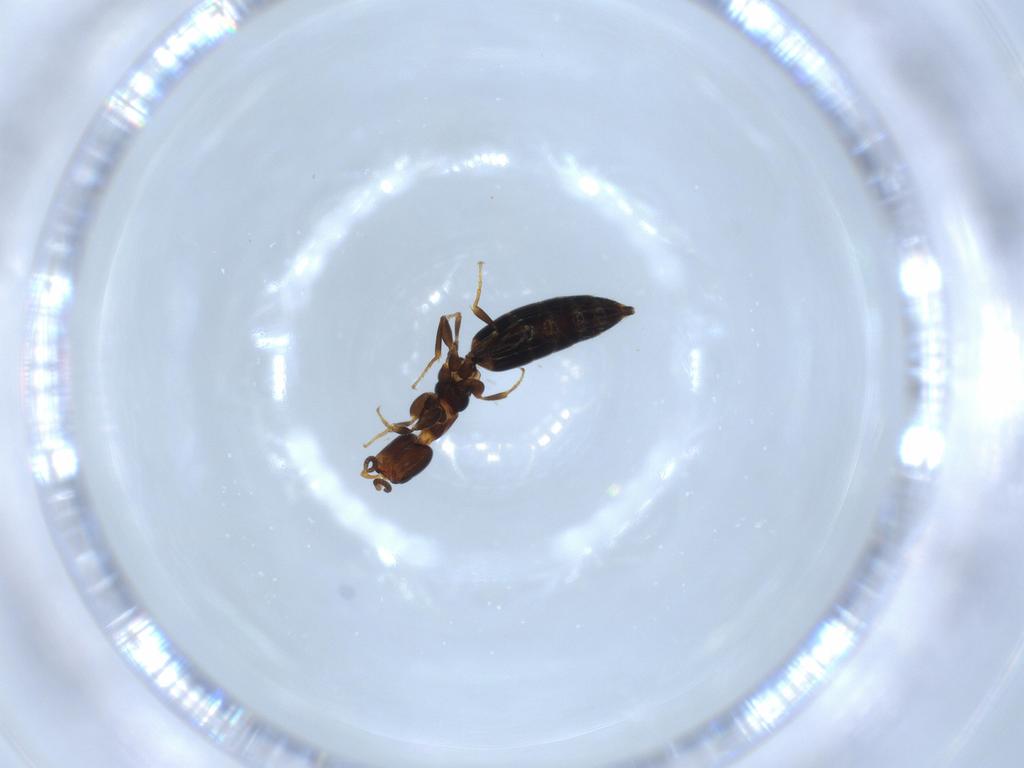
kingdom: Animalia
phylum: Arthropoda
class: Insecta
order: Hymenoptera
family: Bethylidae
